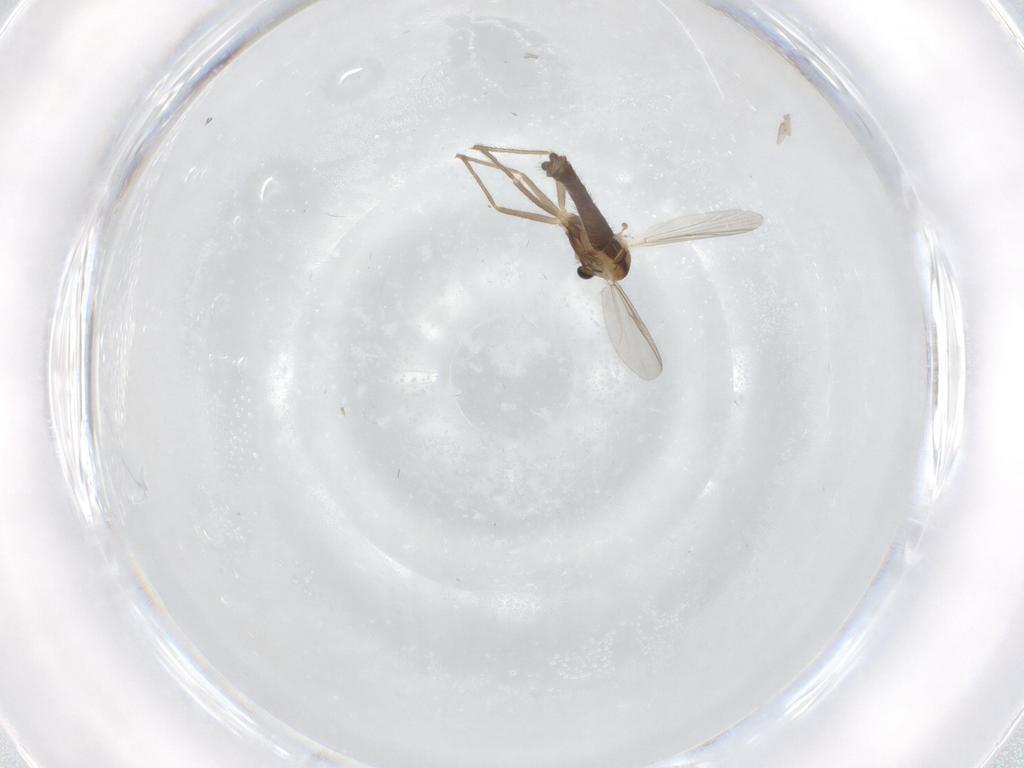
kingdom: Animalia
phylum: Arthropoda
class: Insecta
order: Diptera
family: Chironomidae
